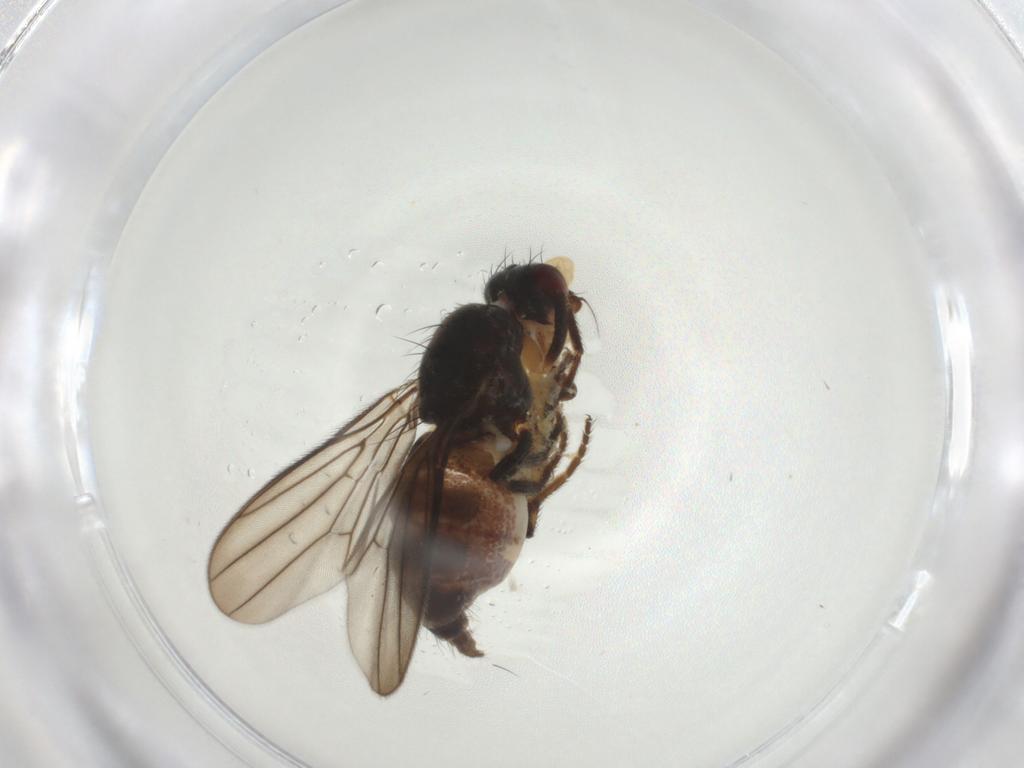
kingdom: Animalia
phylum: Arthropoda
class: Insecta
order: Diptera
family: Chloropidae
